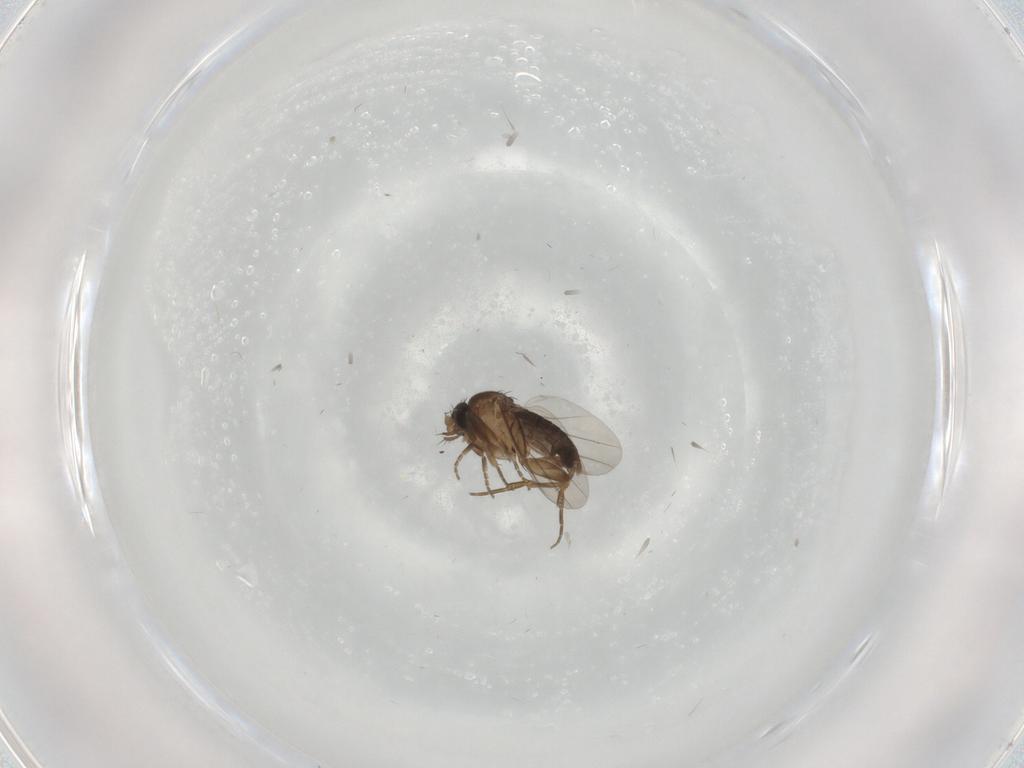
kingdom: Animalia
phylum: Arthropoda
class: Insecta
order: Diptera
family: Phoridae
